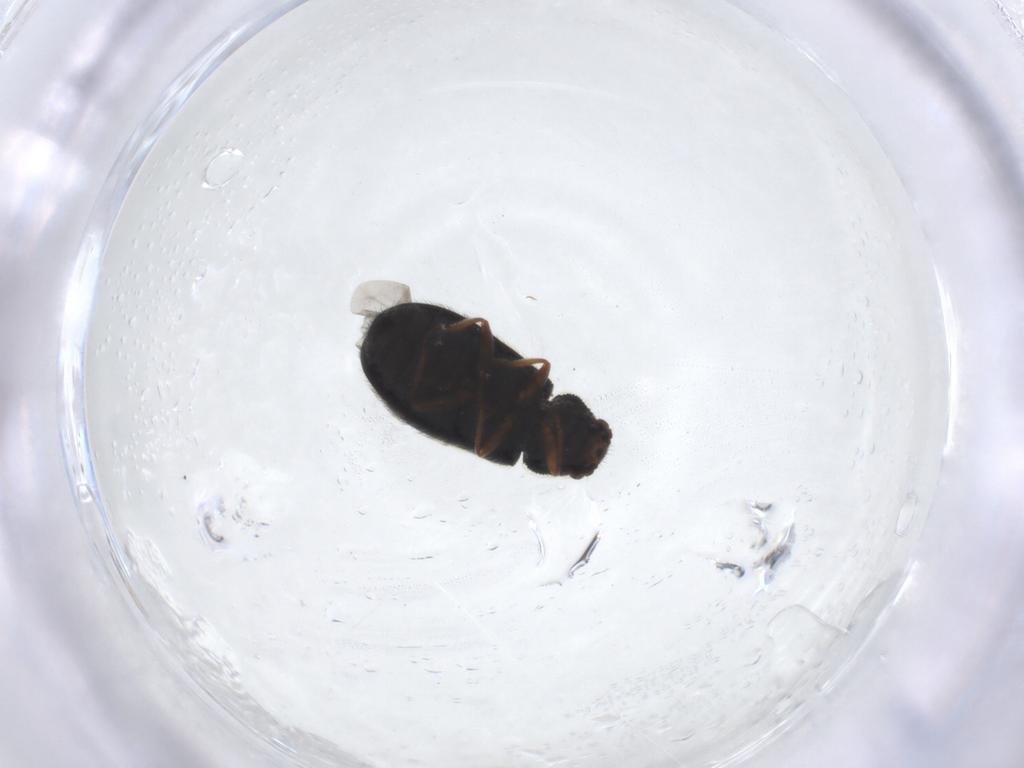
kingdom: Animalia
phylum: Arthropoda
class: Insecta
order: Coleoptera
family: Melyridae
